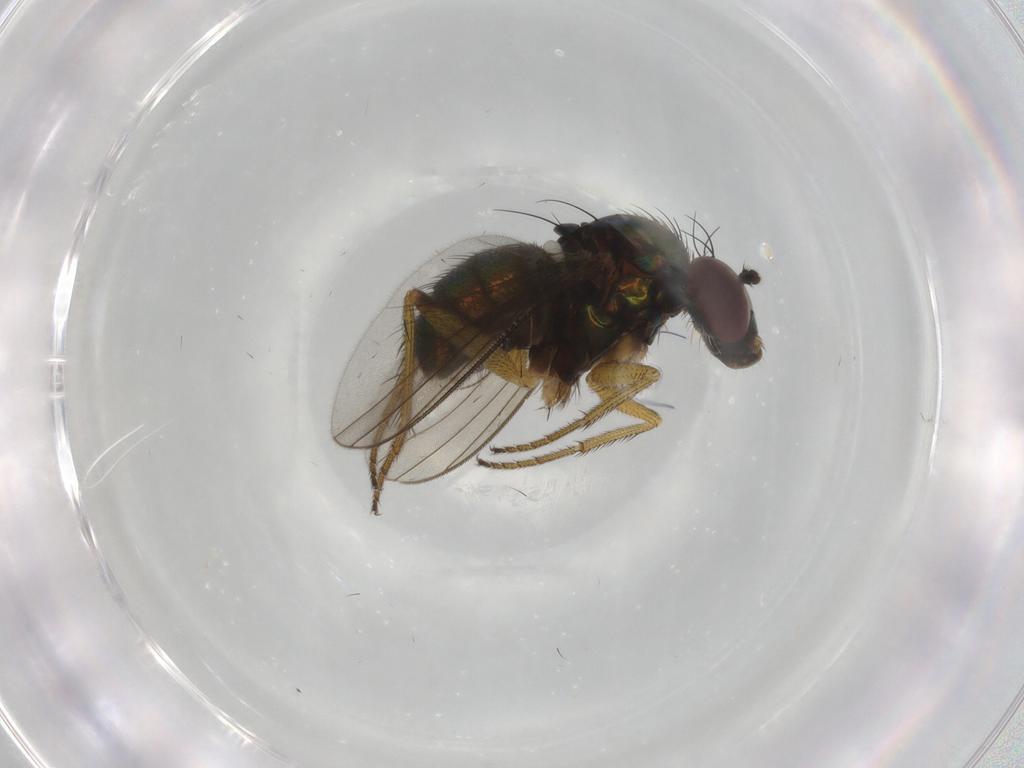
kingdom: Animalia
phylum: Arthropoda
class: Insecta
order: Diptera
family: Dolichopodidae
